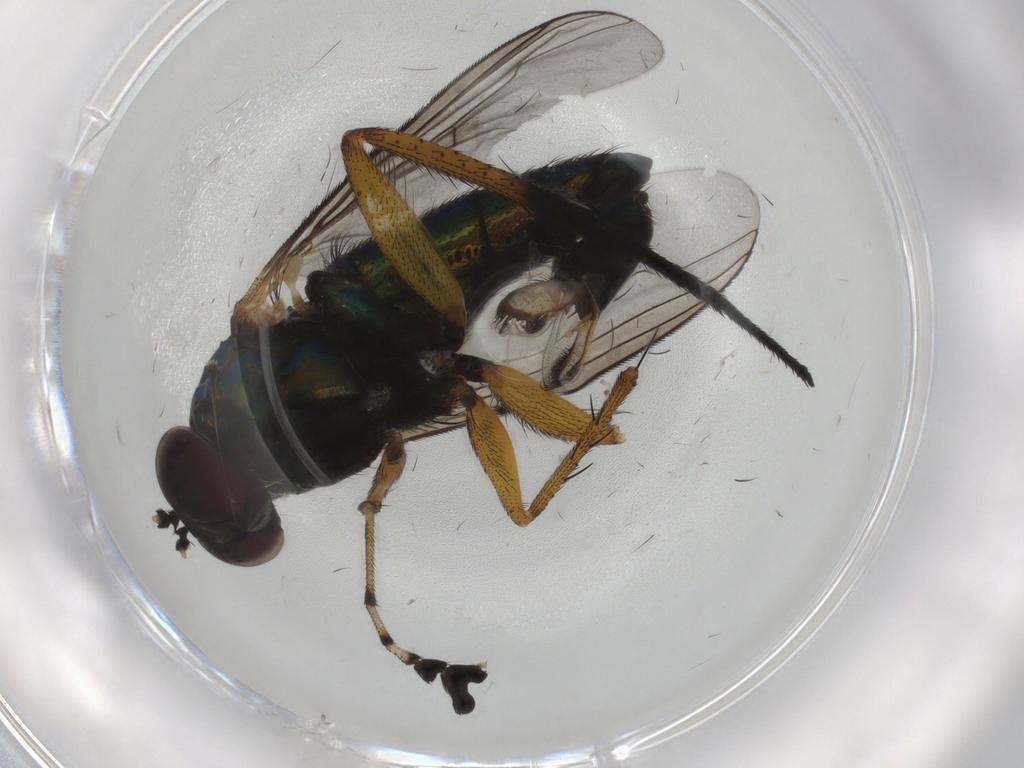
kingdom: Animalia
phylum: Arthropoda
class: Insecta
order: Diptera
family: Dolichopodidae
